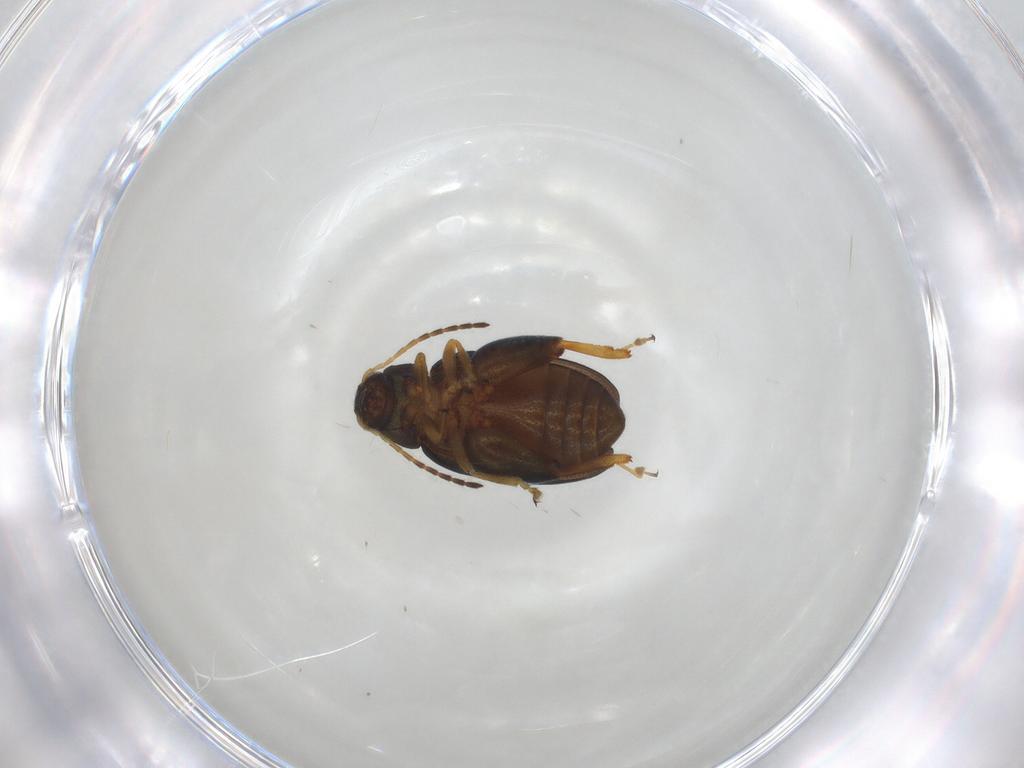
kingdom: Animalia
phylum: Arthropoda
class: Insecta
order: Coleoptera
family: Chrysomelidae
